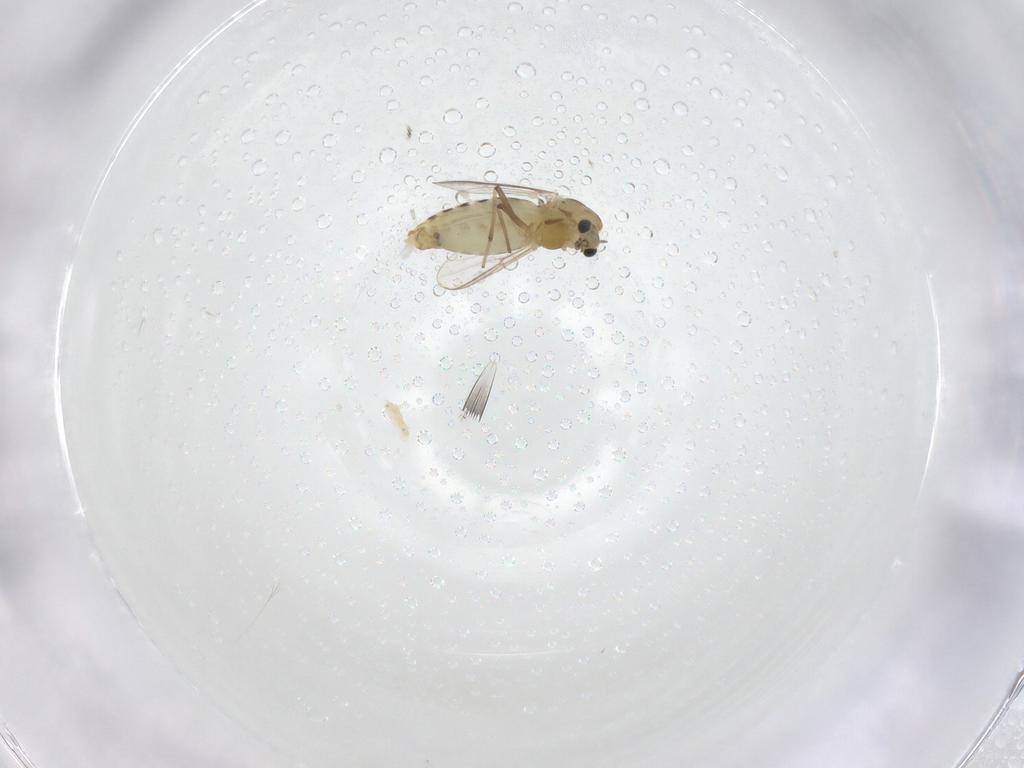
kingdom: Animalia
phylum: Arthropoda
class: Insecta
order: Diptera
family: Chironomidae
